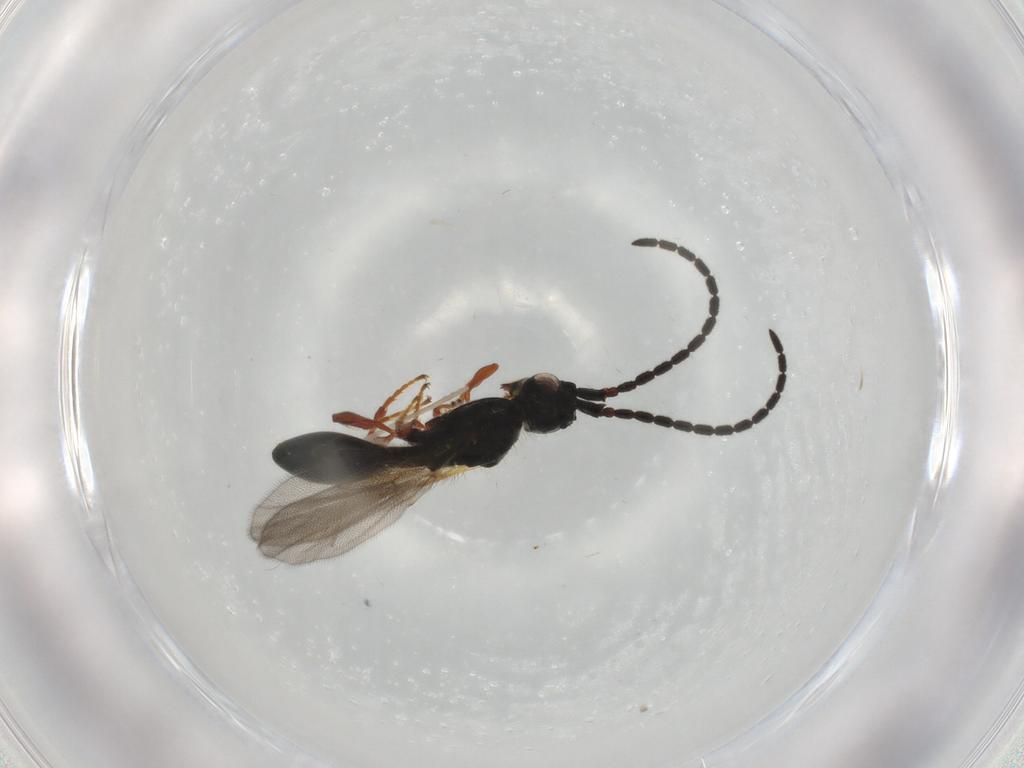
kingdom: Animalia
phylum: Arthropoda
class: Insecta
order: Hymenoptera
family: Diapriidae
